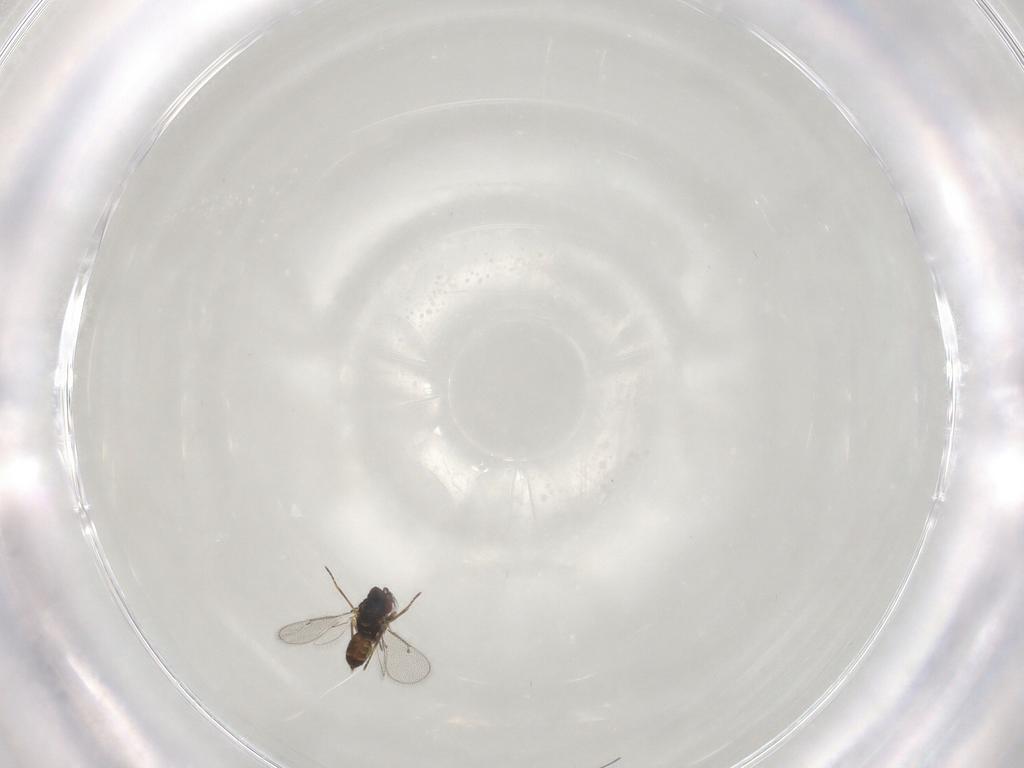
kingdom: Animalia
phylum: Arthropoda
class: Insecta
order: Hymenoptera
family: Eulophidae
